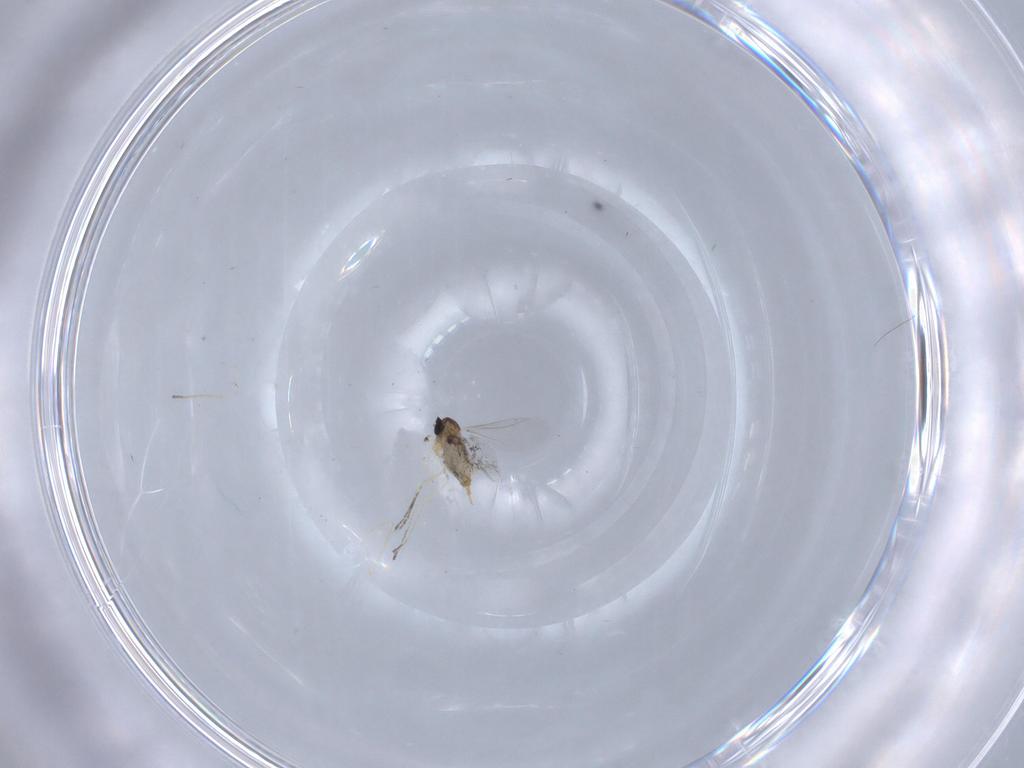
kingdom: Animalia
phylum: Arthropoda
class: Insecta
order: Diptera
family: Cecidomyiidae
